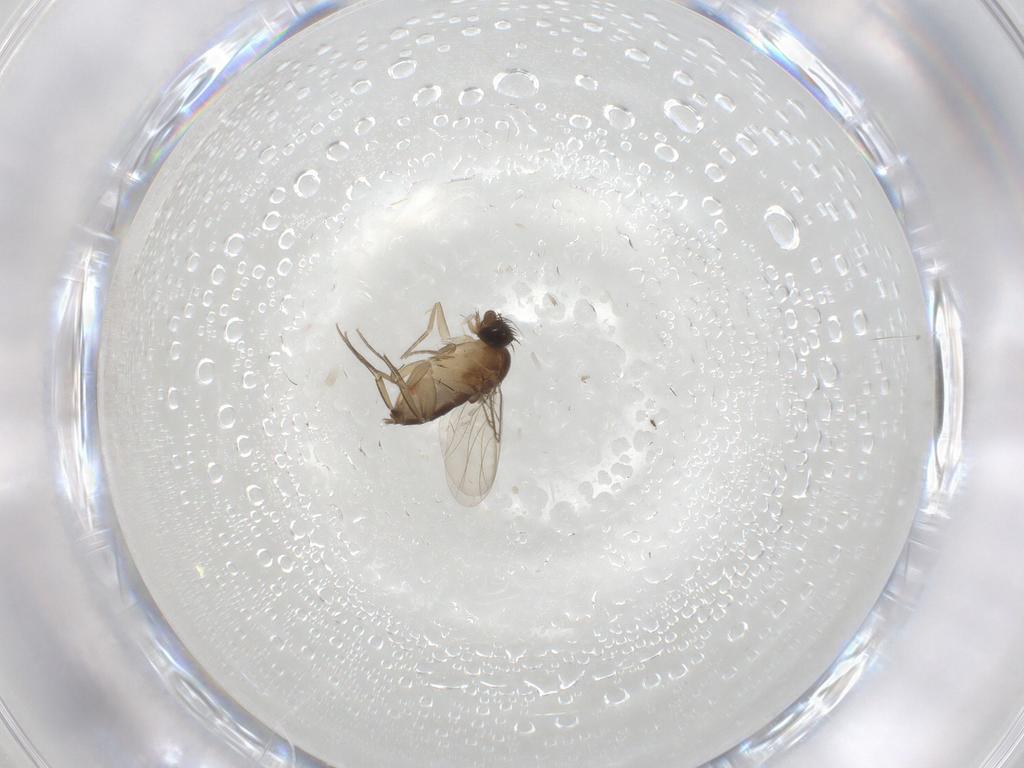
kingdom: Animalia
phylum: Arthropoda
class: Insecta
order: Diptera
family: Phoridae
